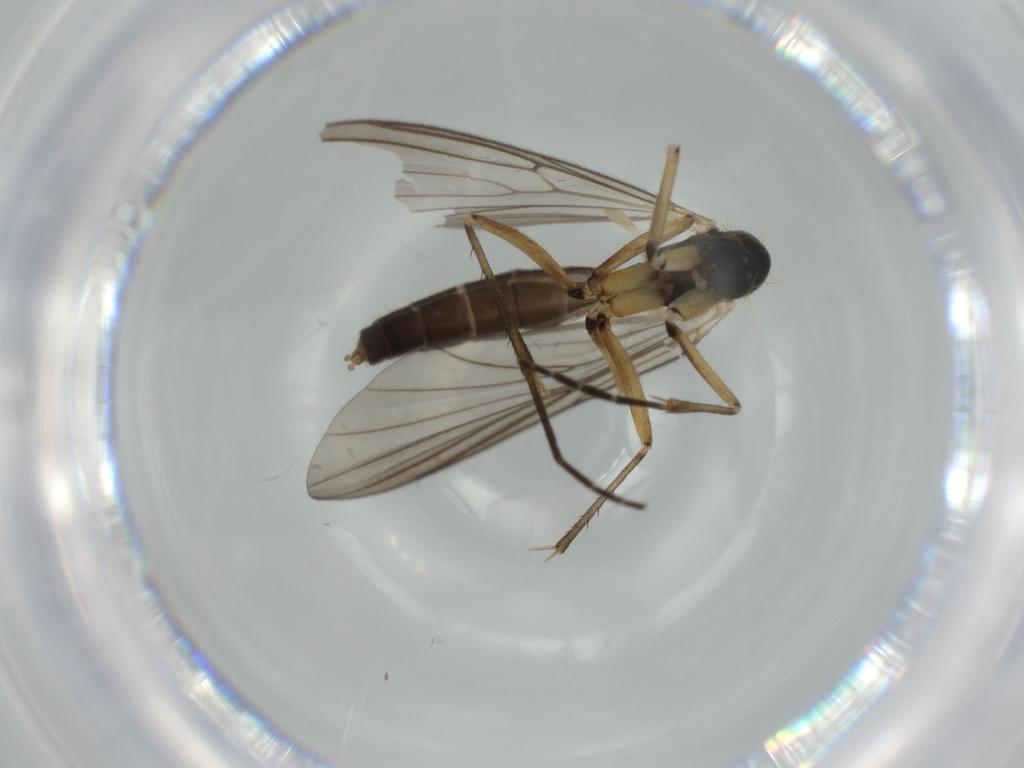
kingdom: Animalia
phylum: Arthropoda
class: Insecta
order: Diptera
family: Mycetophilidae
